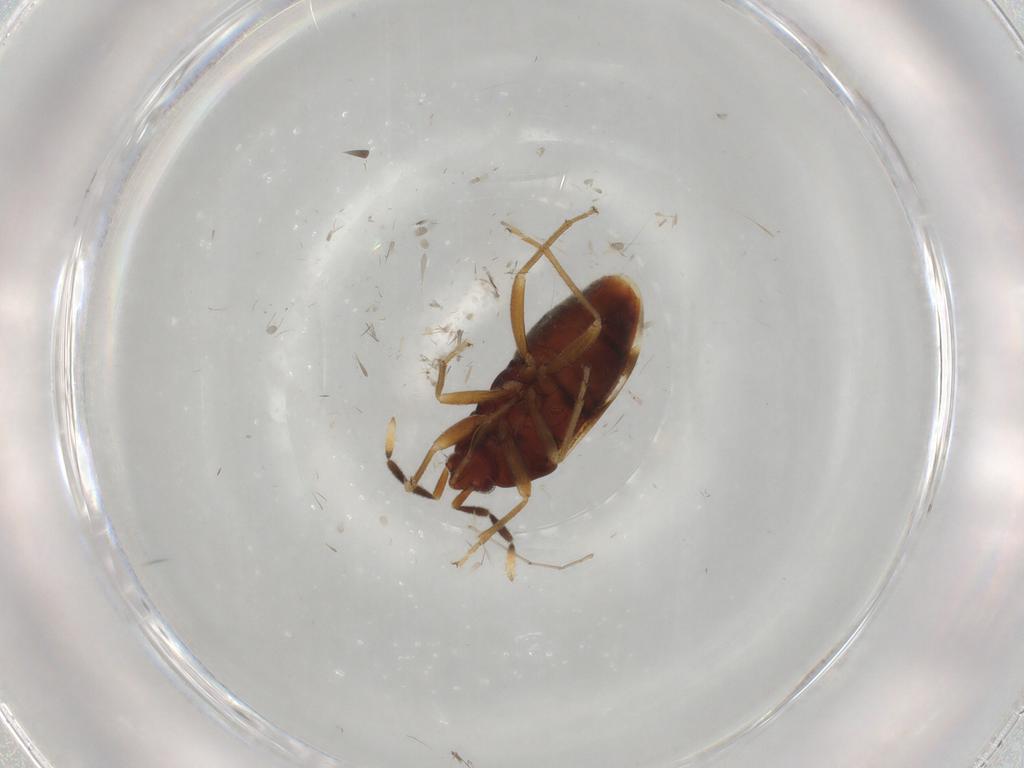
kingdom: Animalia
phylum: Arthropoda
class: Insecta
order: Hemiptera
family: Rhyparochromidae
